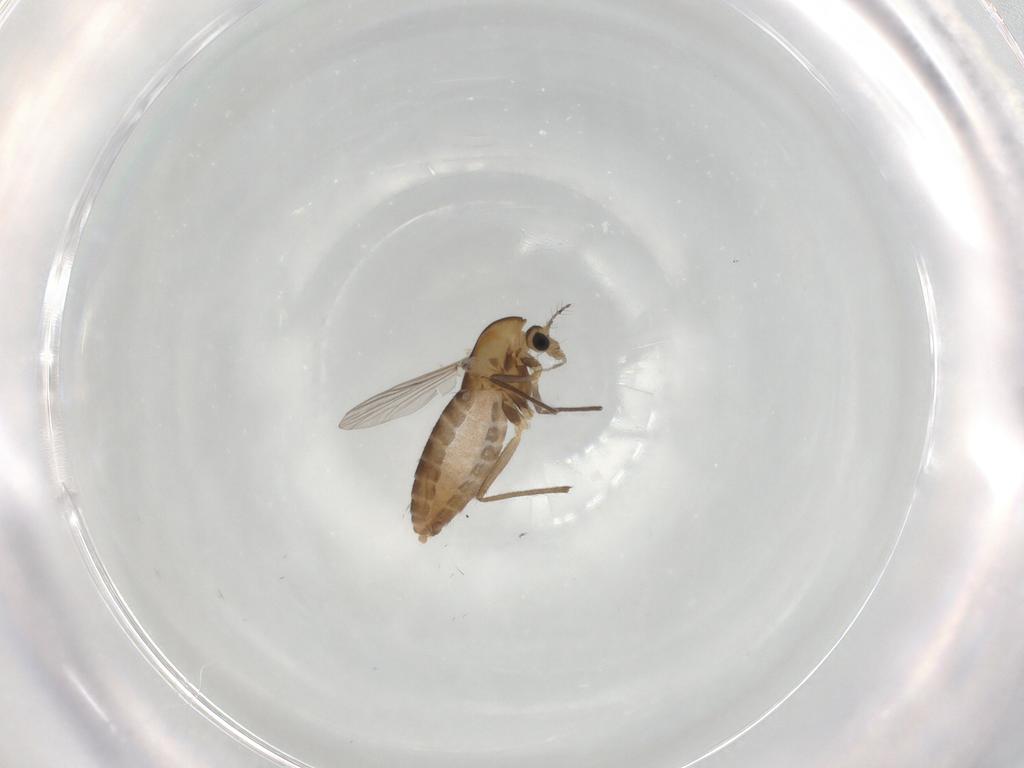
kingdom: Animalia
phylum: Arthropoda
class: Insecta
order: Diptera
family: Chironomidae
